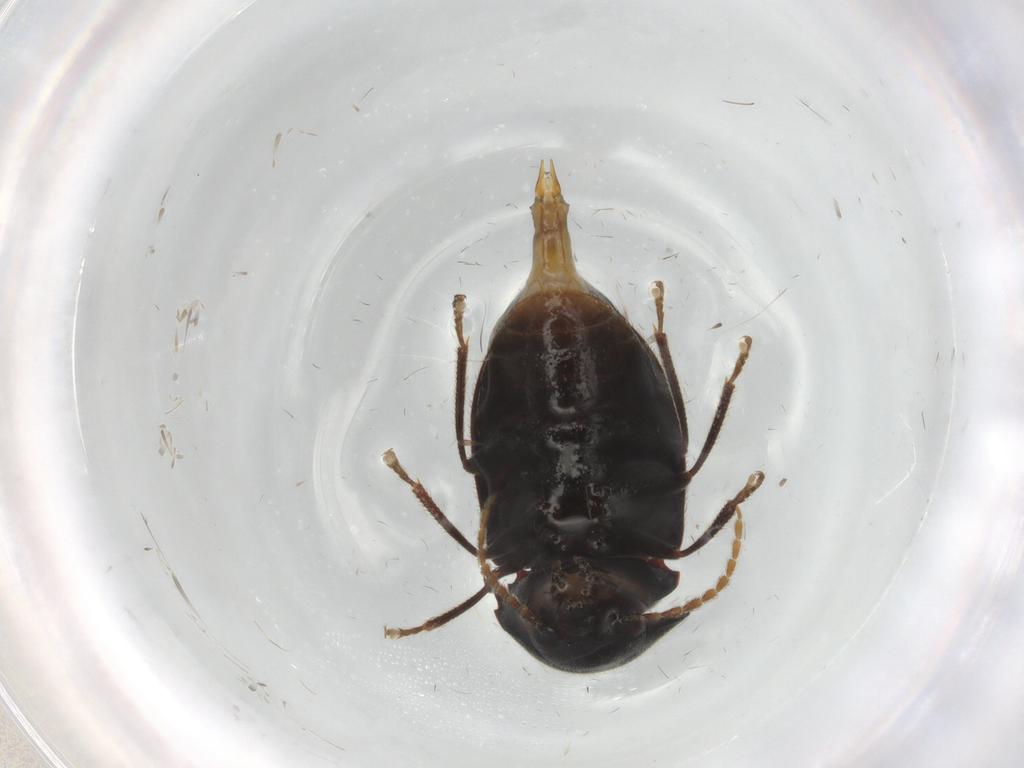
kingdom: Animalia
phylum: Arthropoda
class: Insecta
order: Coleoptera
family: Ptilodactylidae
